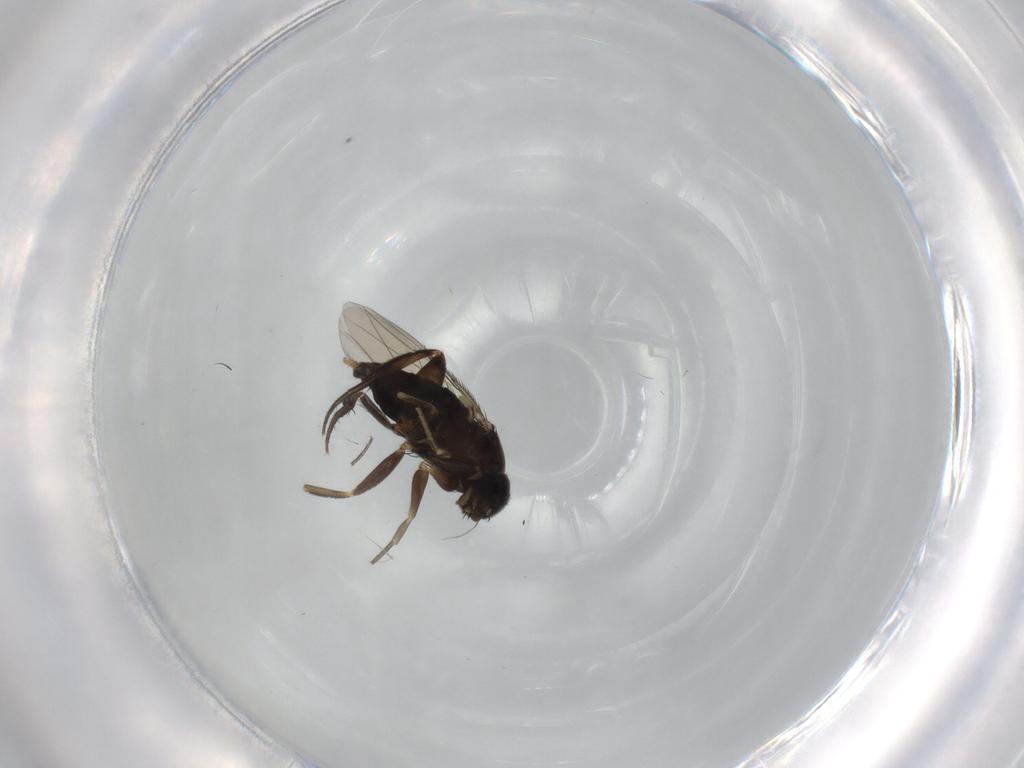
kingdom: Animalia
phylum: Arthropoda
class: Insecta
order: Diptera
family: Phoridae
